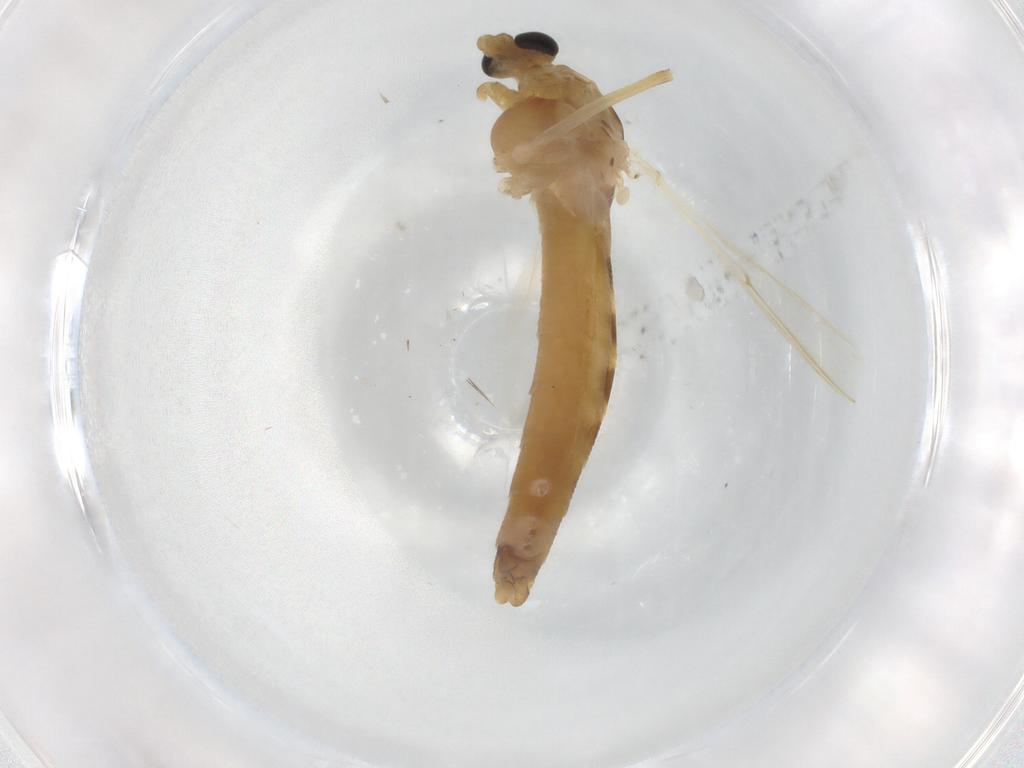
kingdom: Animalia
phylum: Arthropoda
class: Insecta
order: Diptera
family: Chironomidae
